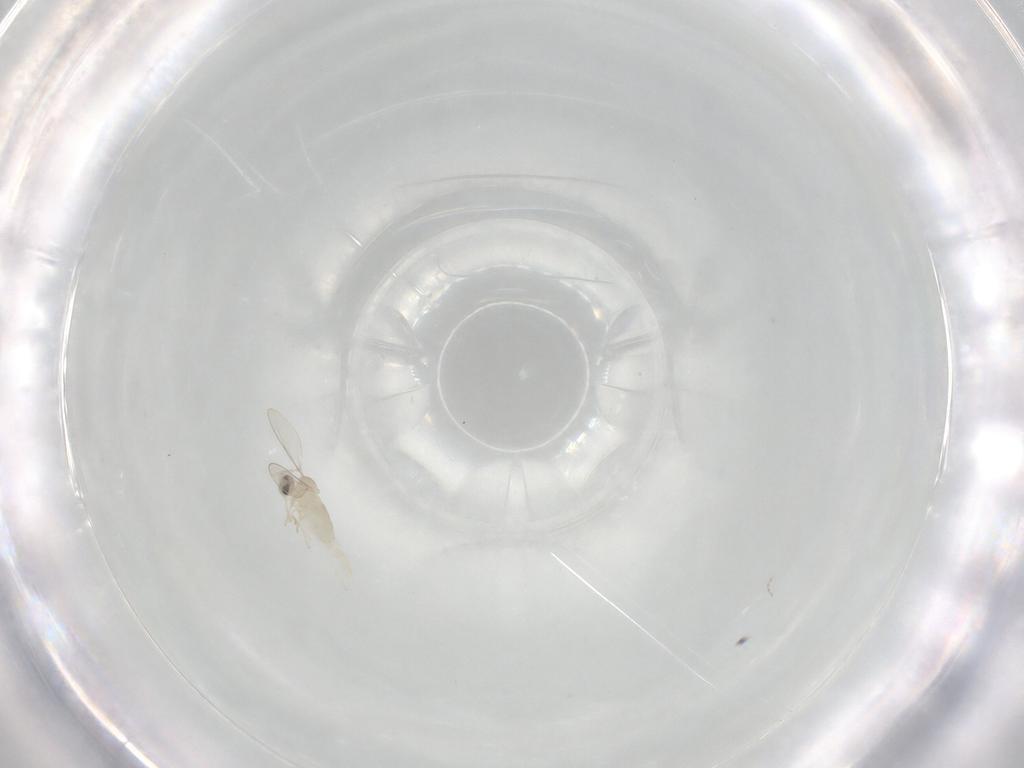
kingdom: Animalia
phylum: Arthropoda
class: Insecta
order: Diptera
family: Cecidomyiidae
